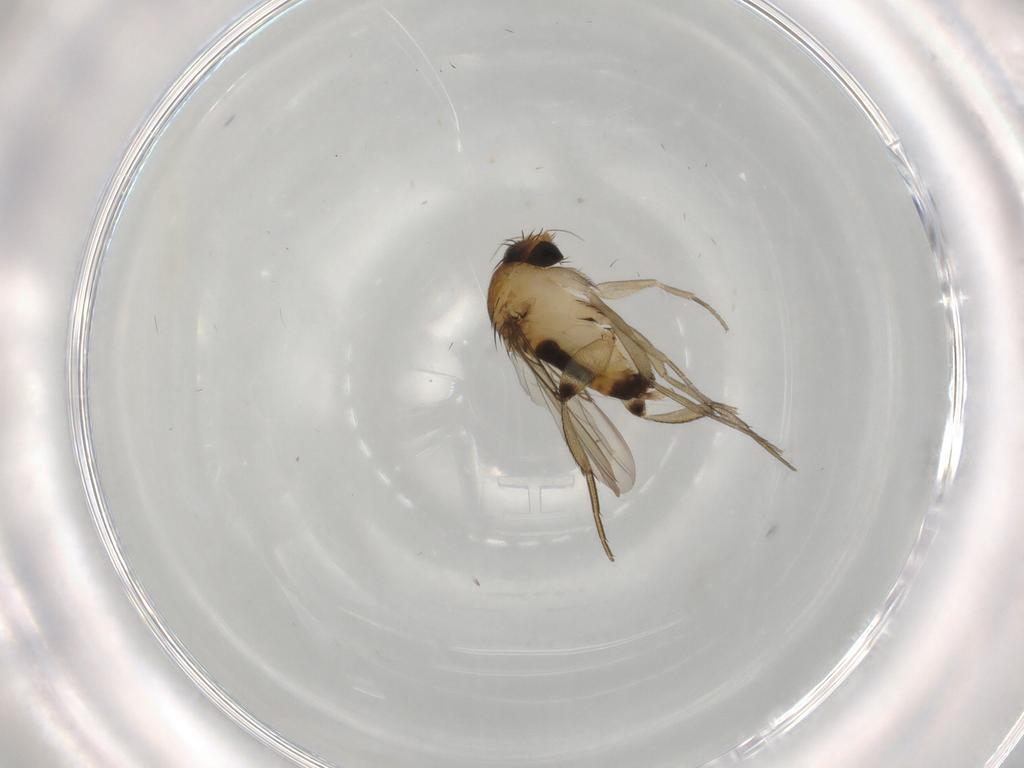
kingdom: Animalia
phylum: Arthropoda
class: Insecta
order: Diptera
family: Phoridae
